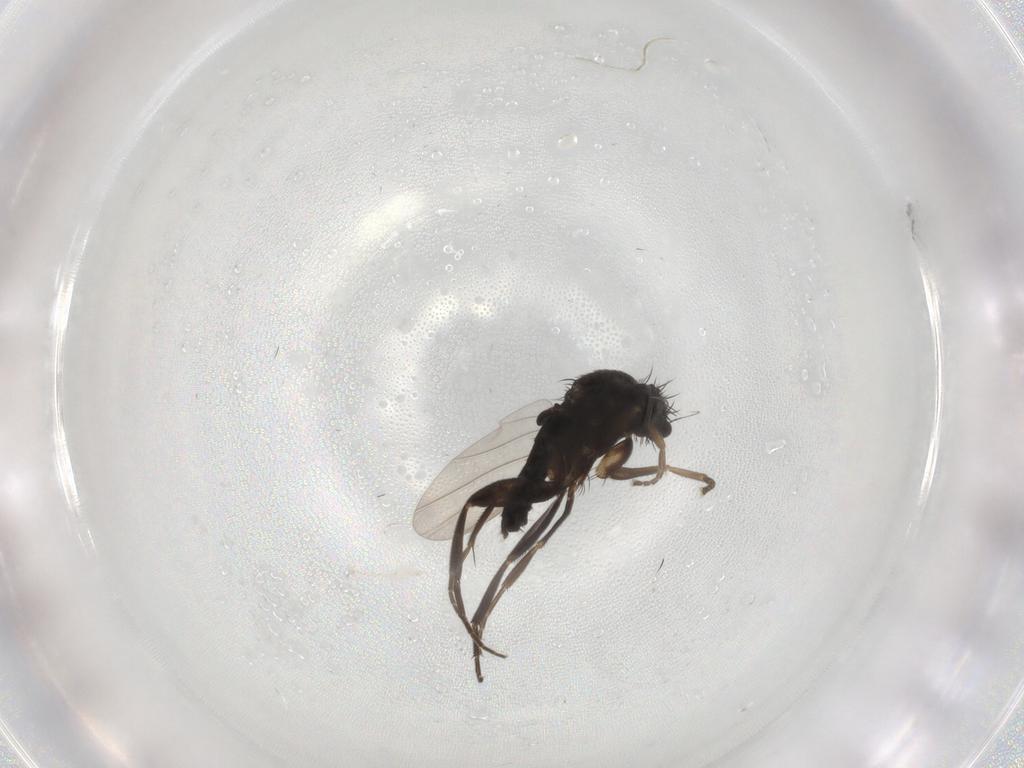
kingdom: Animalia
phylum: Arthropoda
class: Insecta
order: Diptera
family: Phoridae
